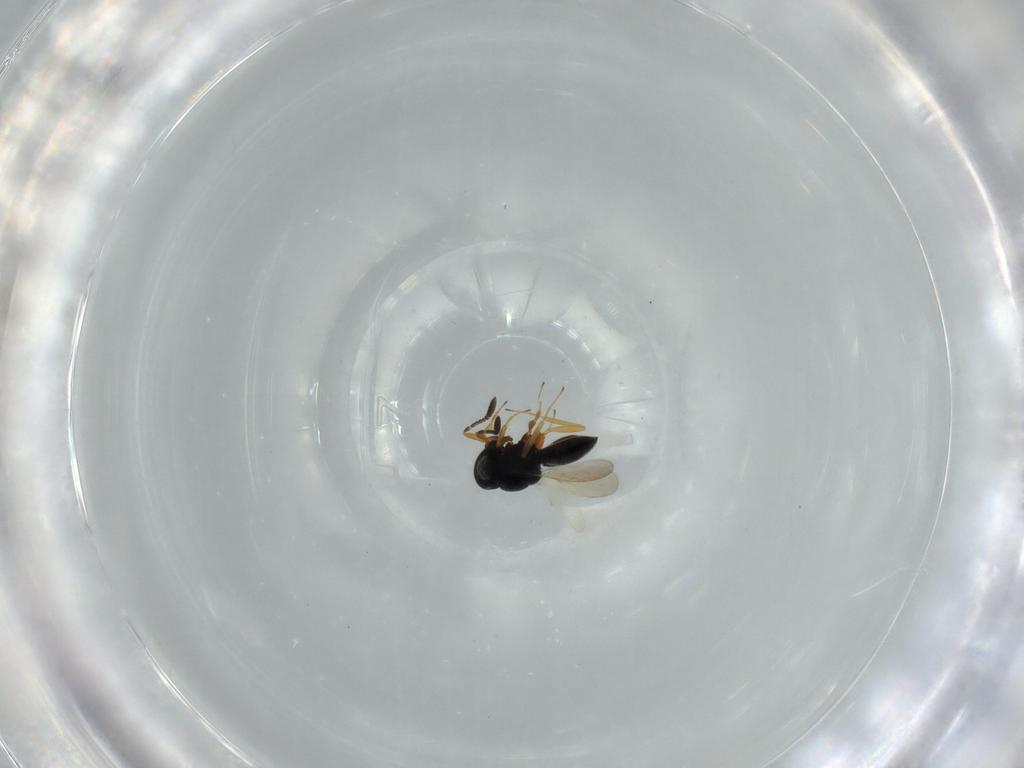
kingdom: Animalia
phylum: Arthropoda
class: Insecta
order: Hymenoptera
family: Scelionidae
